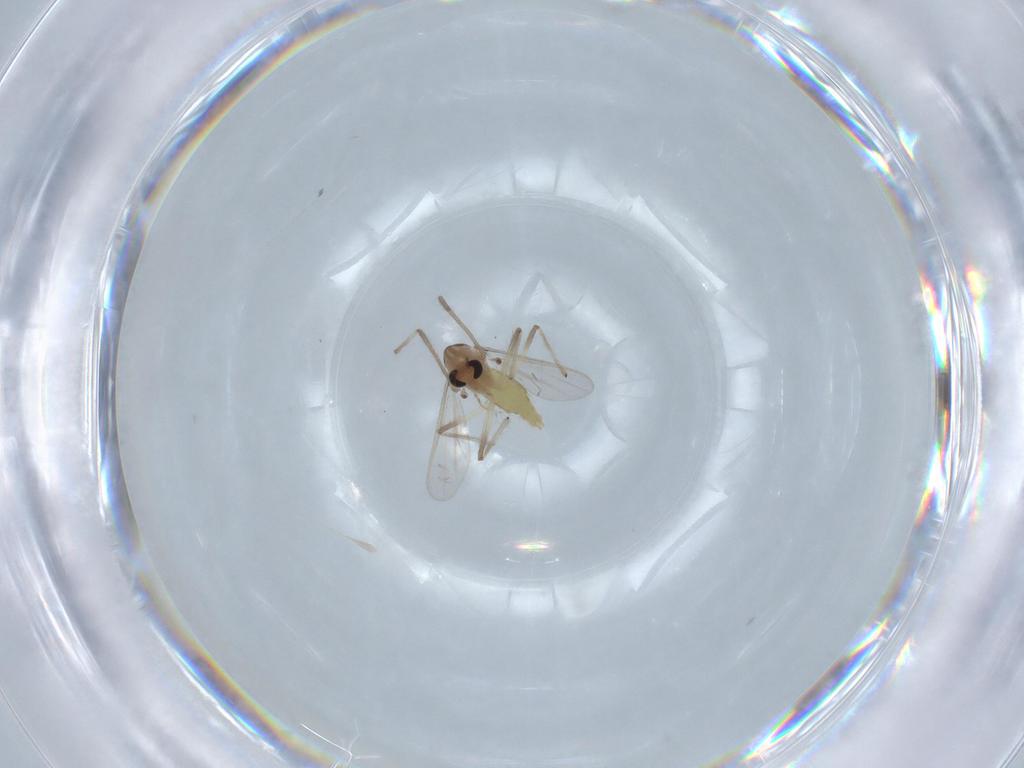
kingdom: Animalia
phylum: Arthropoda
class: Insecta
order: Diptera
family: Chironomidae
